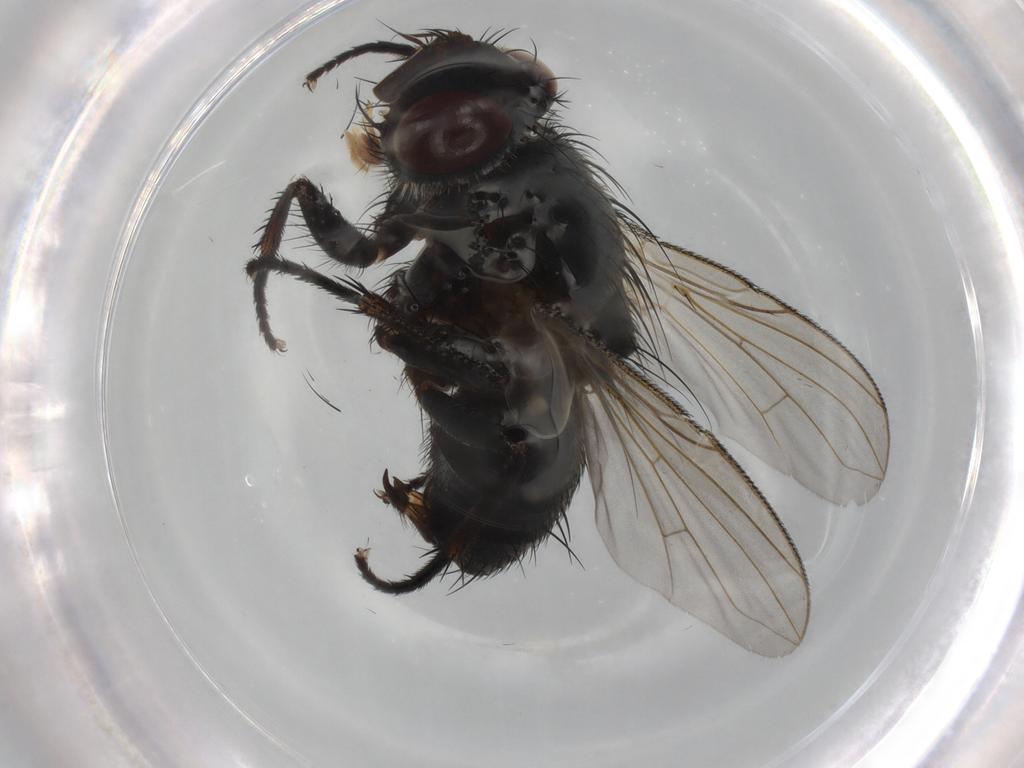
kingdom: Animalia
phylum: Arthropoda
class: Insecta
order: Diptera
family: Tachinidae
